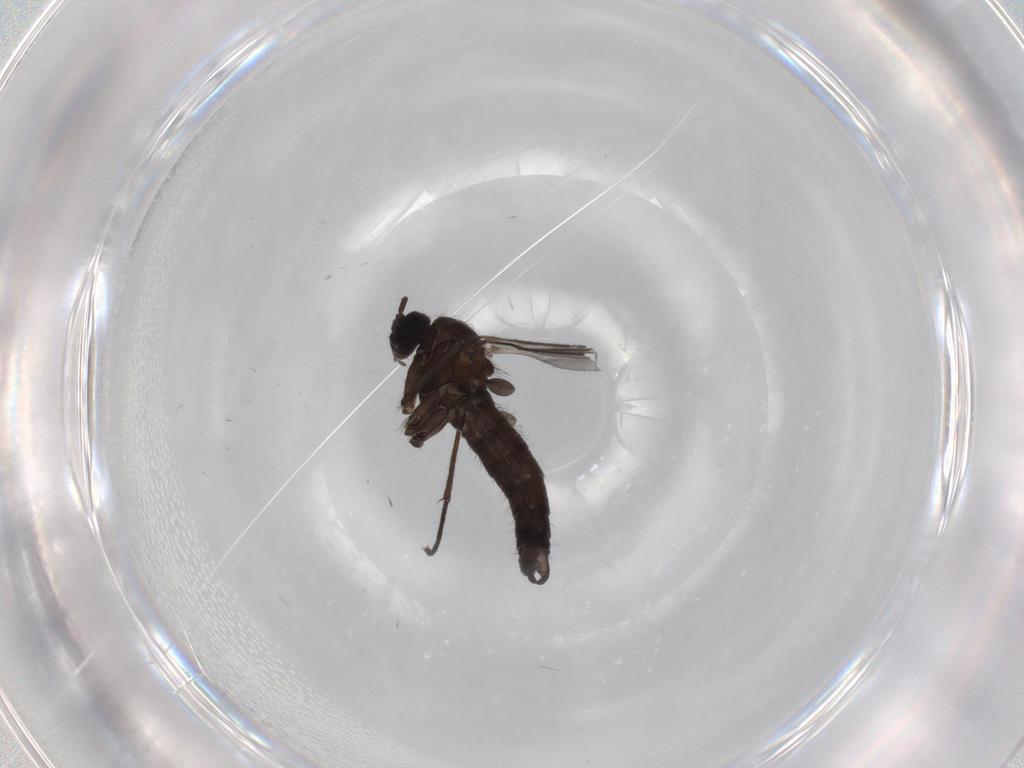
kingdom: Animalia
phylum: Arthropoda
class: Insecta
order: Diptera
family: Sciaridae
